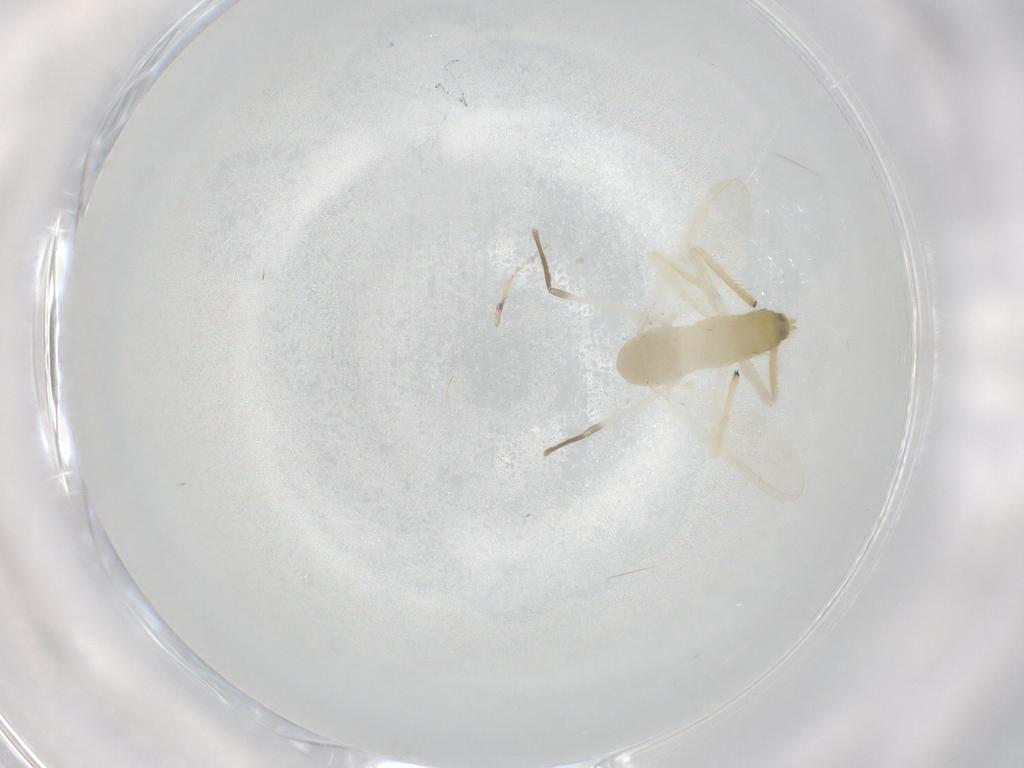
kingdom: Animalia
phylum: Arthropoda
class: Insecta
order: Diptera
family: Chironomidae
